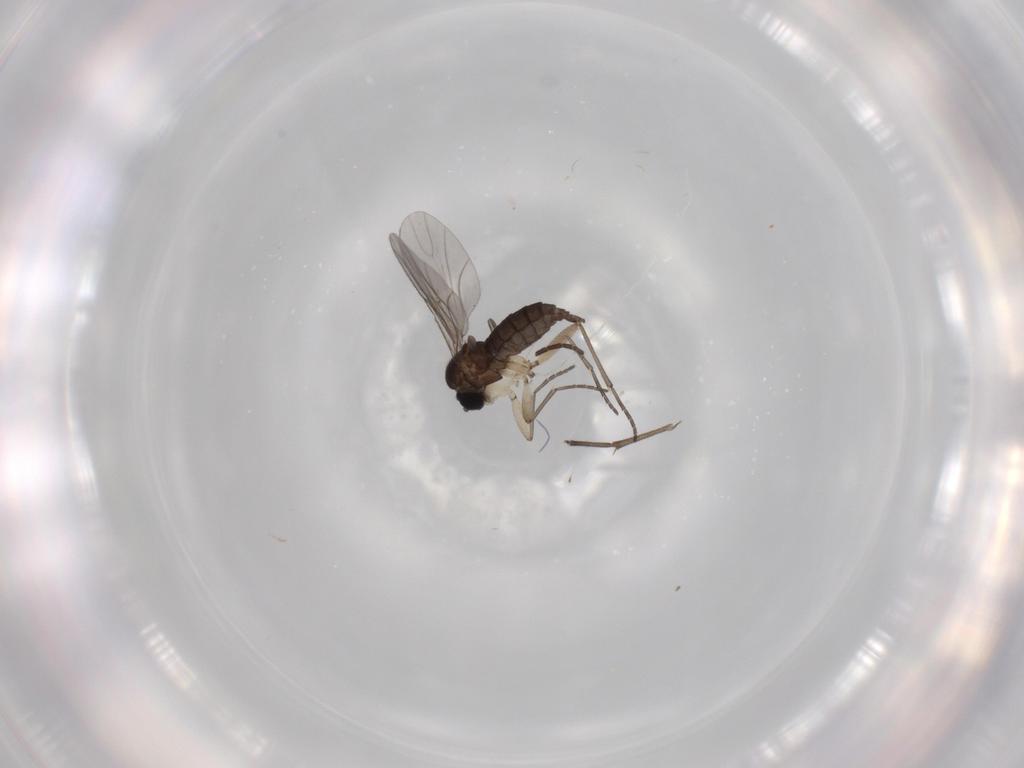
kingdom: Animalia
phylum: Arthropoda
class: Insecta
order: Diptera
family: Sciaridae
